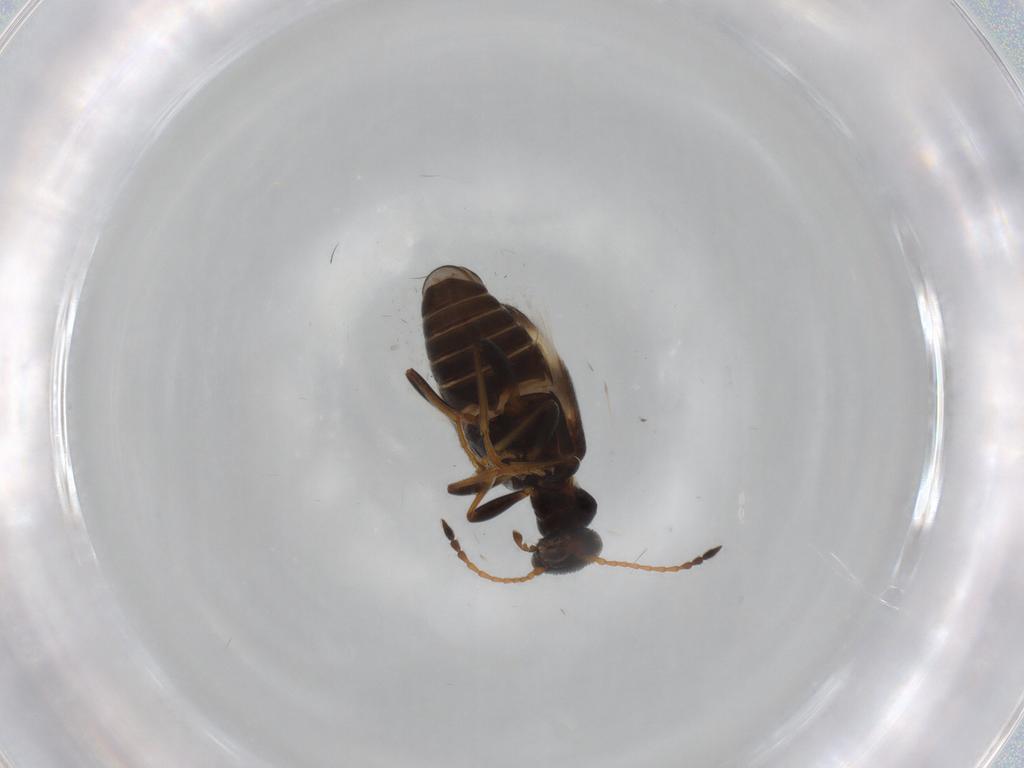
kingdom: Animalia
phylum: Arthropoda
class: Insecta
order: Coleoptera
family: Anthicidae
